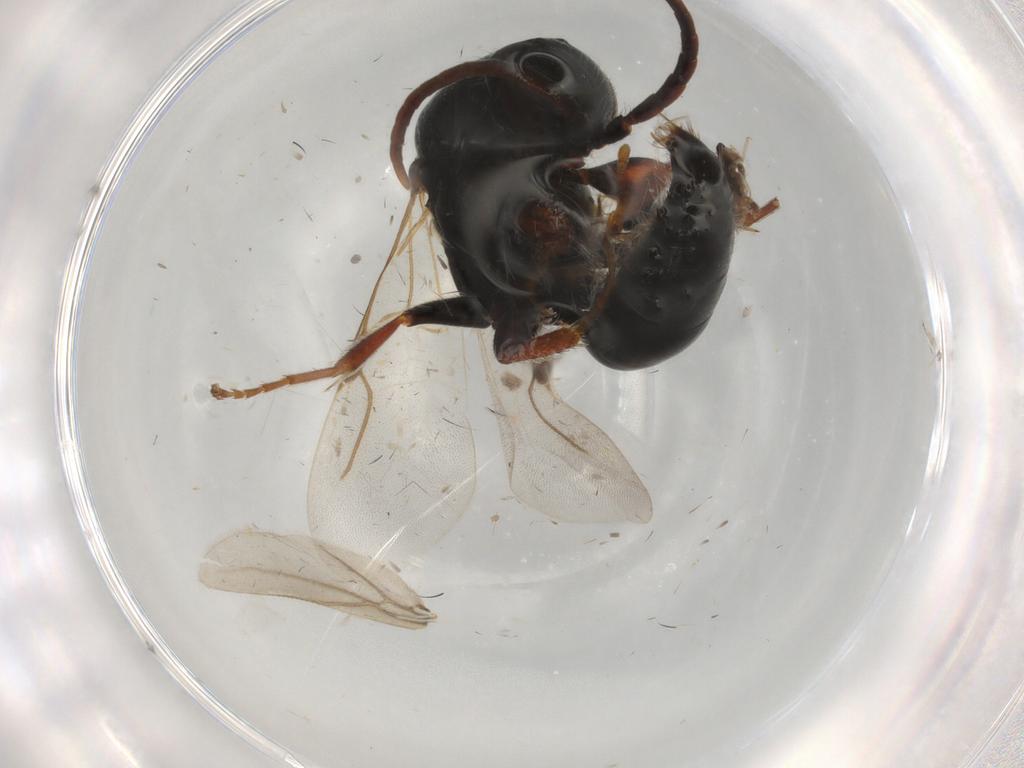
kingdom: Animalia
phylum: Arthropoda
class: Insecta
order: Hymenoptera
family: Bethylidae
